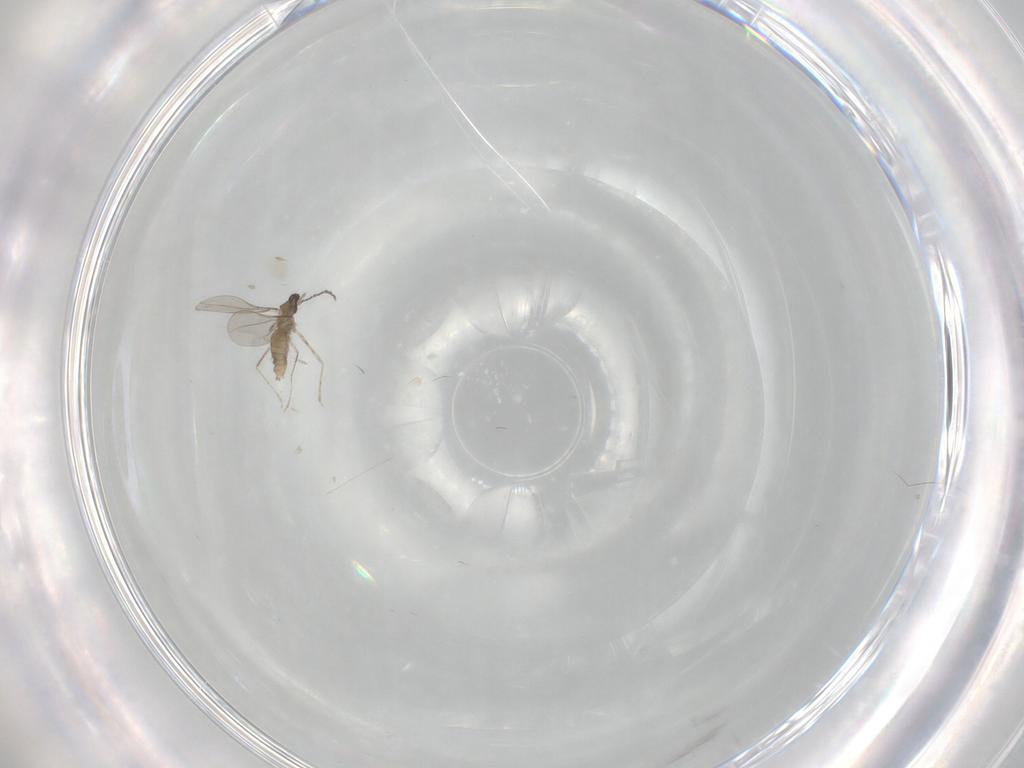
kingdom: Animalia
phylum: Arthropoda
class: Insecta
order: Diptera
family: Cecidomyiidae
